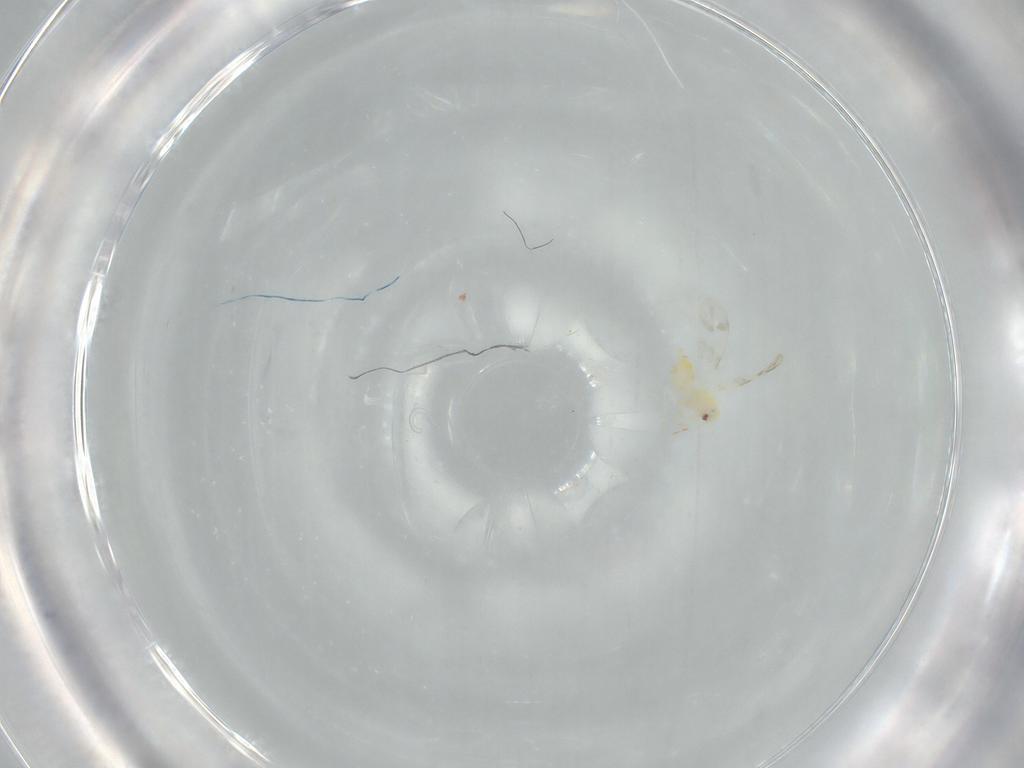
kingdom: Animalia
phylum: Arthropoda
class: Insecta
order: Hemiptera
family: Aleyrodidae
